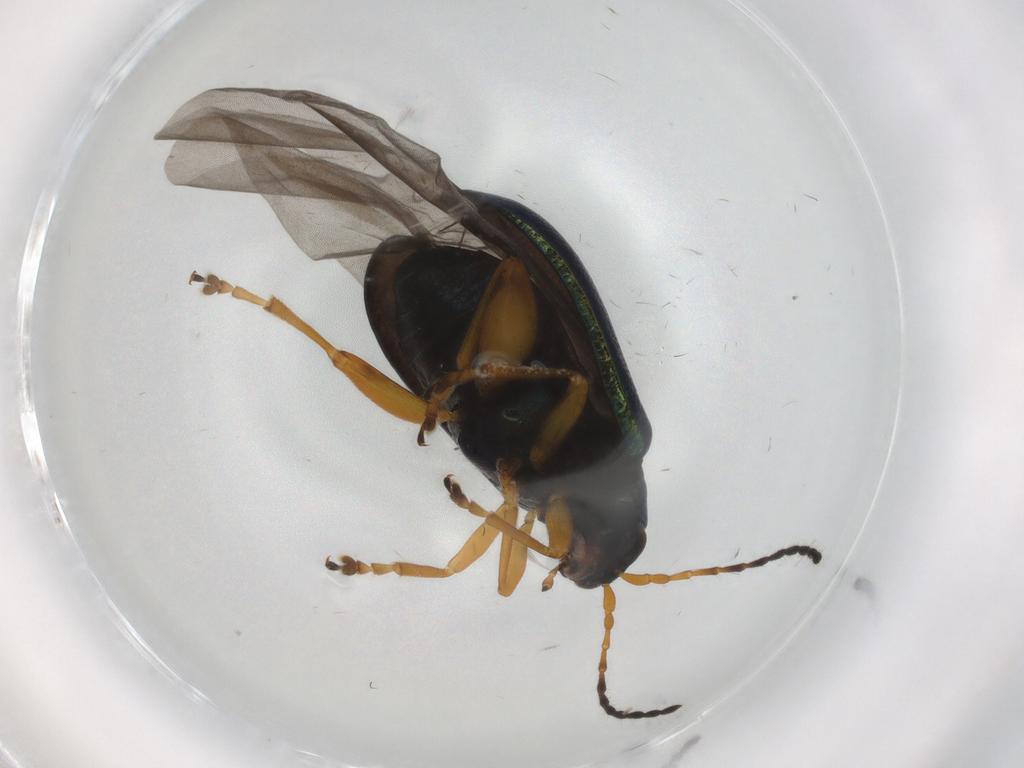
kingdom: Animalia
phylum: Arthropoda
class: Insecta
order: Coleoptera
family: Chrysomelidae
